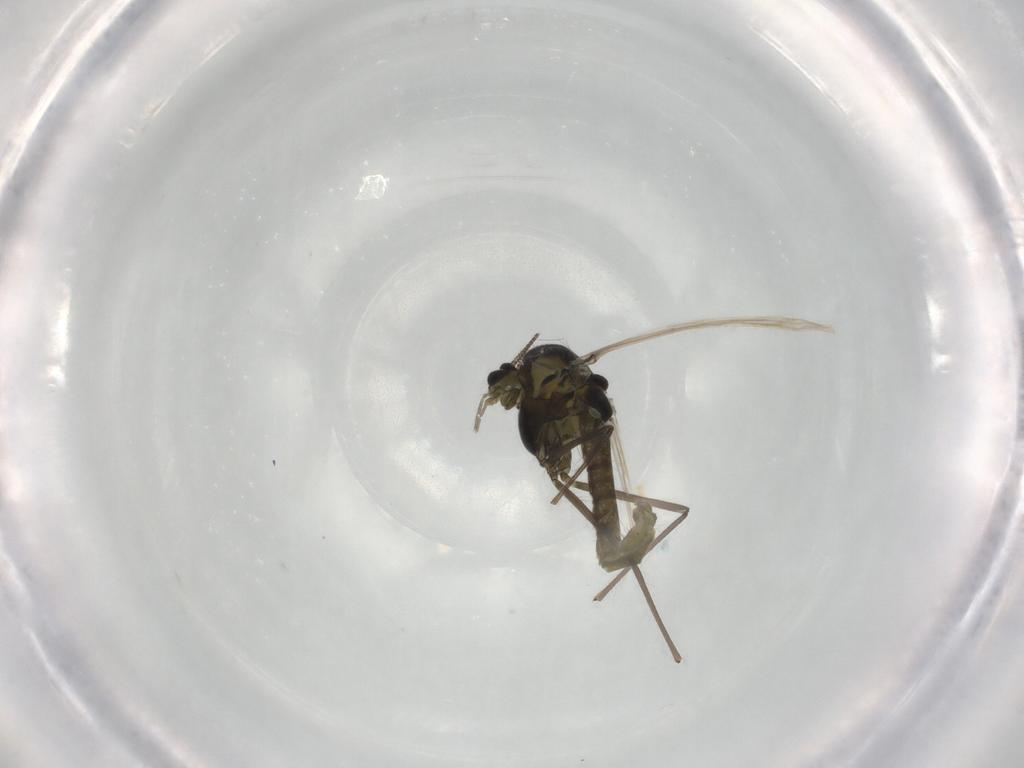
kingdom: Animalia
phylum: Arthropoda
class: Insecta
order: Diptera
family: Chironomidae
